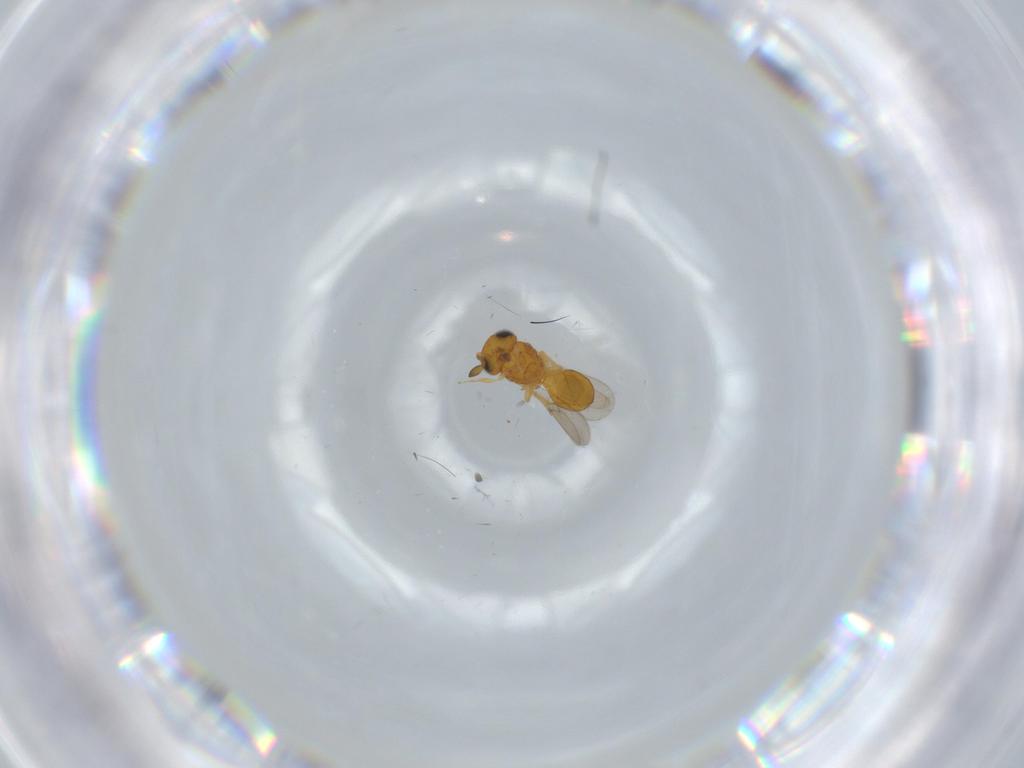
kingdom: Animalia
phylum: Arthropoda
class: Insecta
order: Hymenoptera
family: Scelionidae
